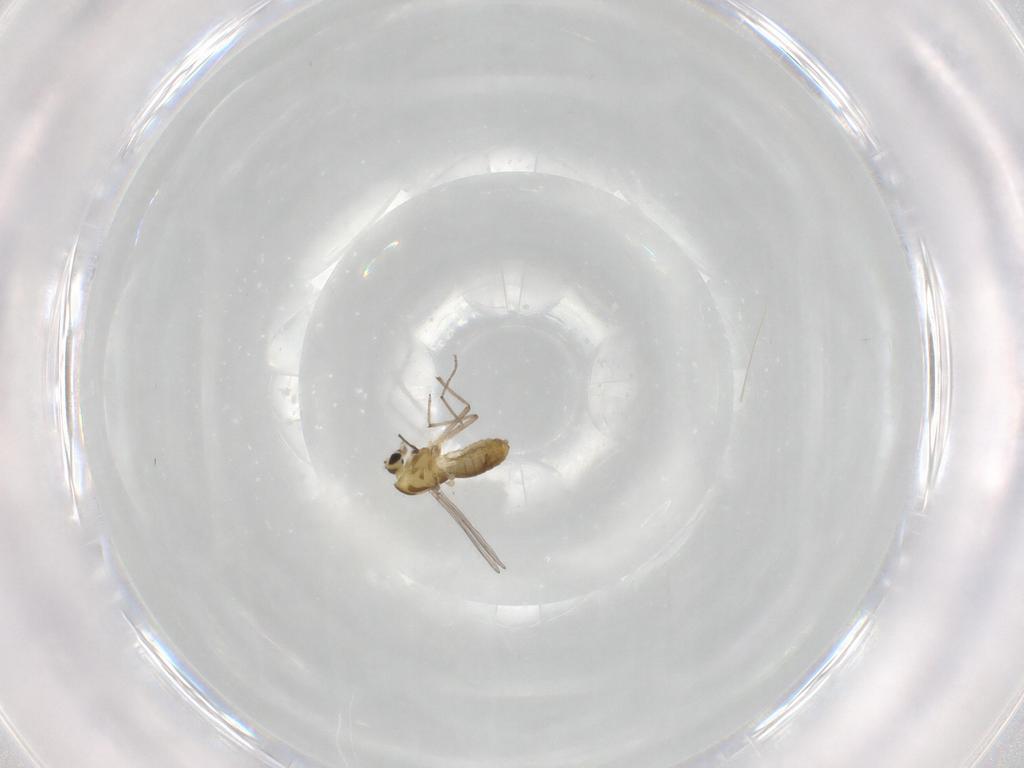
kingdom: Animalia
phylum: Arthropoda
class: Insecta
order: Diptera
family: Chironomidae
